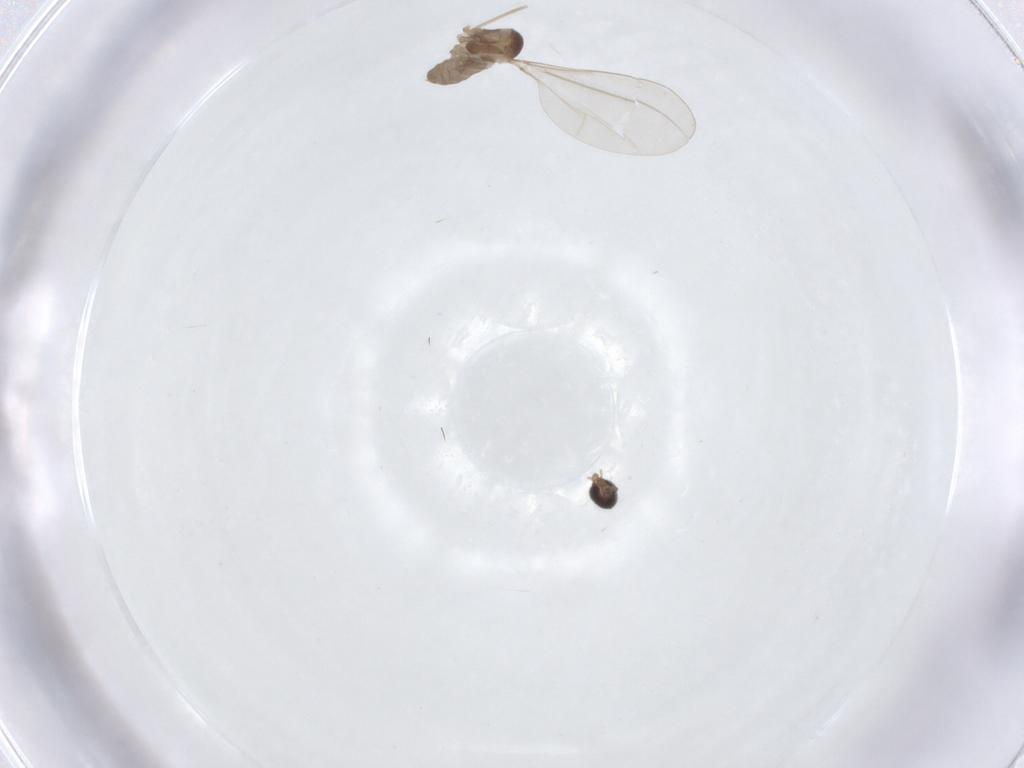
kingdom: Animalia
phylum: Arthropoda
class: Insecta
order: Diptera
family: Cecidomyiidae
